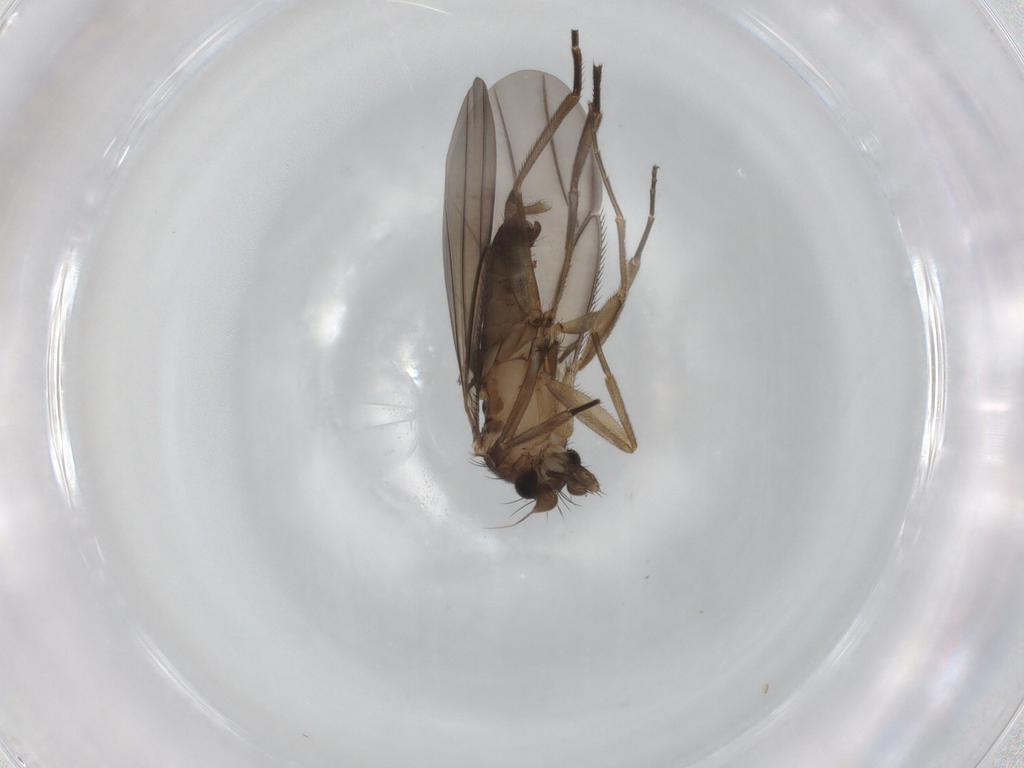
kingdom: Animalia
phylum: Arthropoda
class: Insecta
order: Diptera
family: Phoridae
